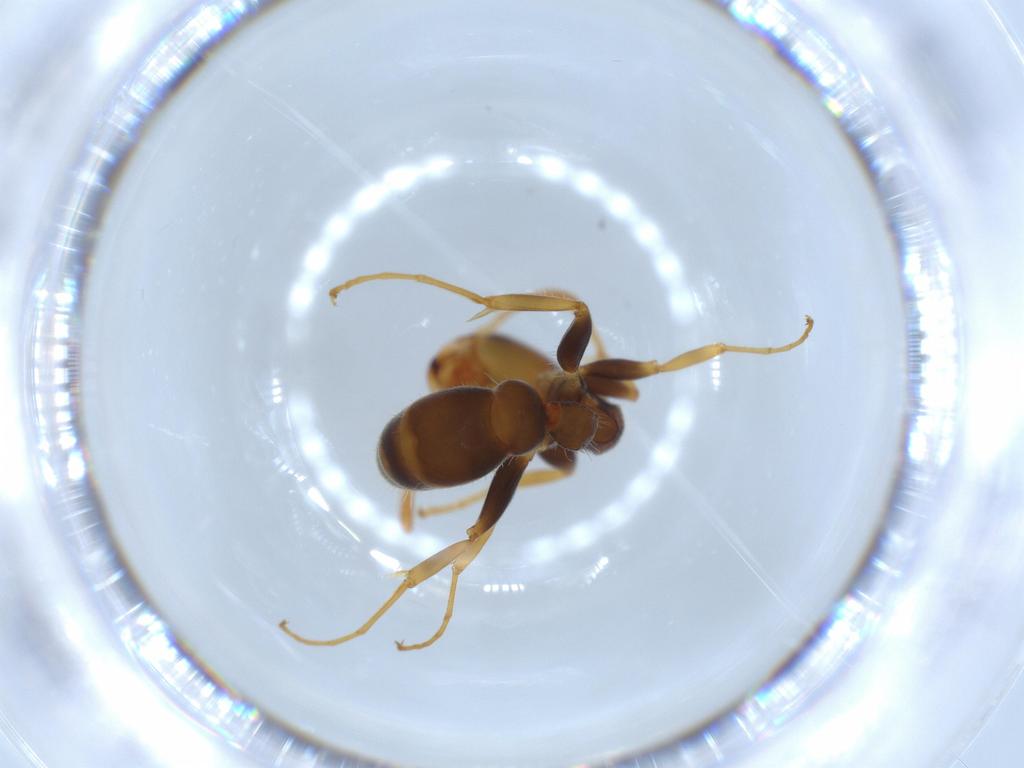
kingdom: Animalia
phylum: Arthropoda
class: Insecta
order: Hymenoptera
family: Formicidae
